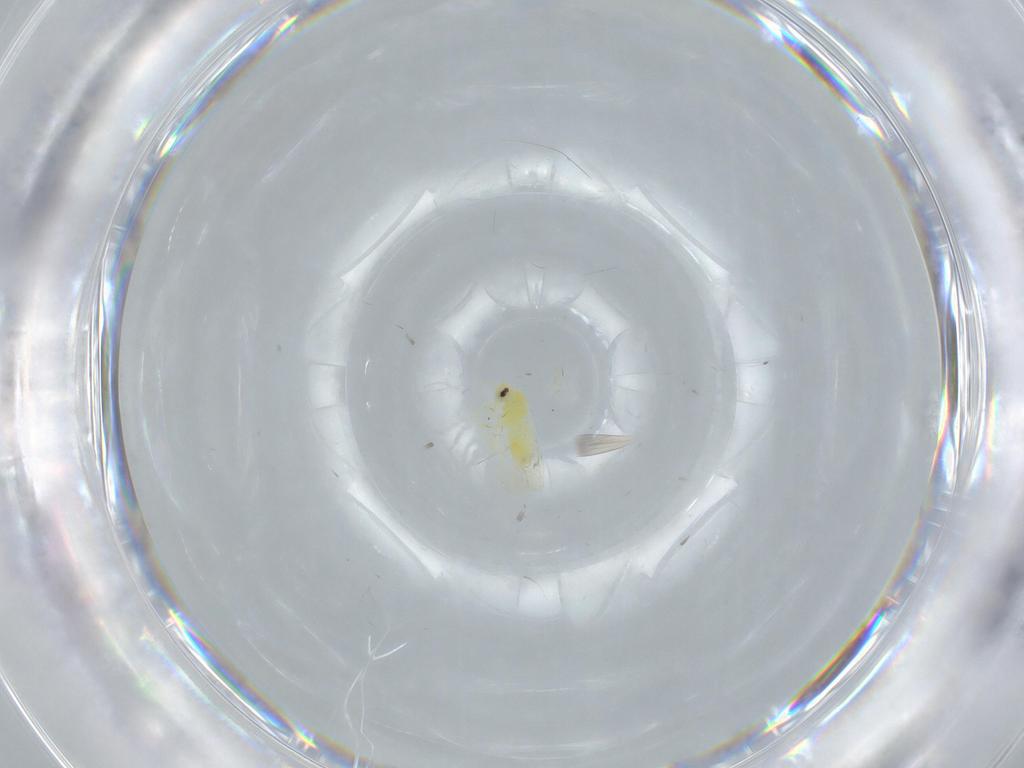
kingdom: Animalia
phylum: Arthropoda
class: Insecta
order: Hemiptera
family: Aleyrodidae
